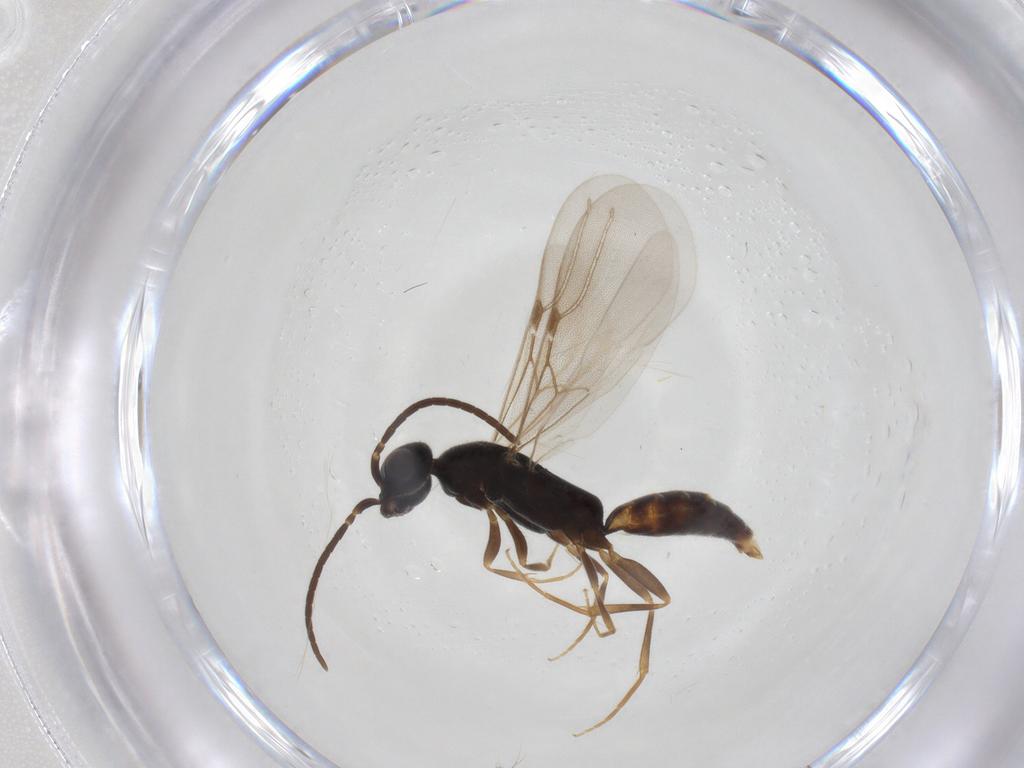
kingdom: Animalia
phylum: Arthropoda
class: Insecta
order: Hymenoptera
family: Bethylidae
